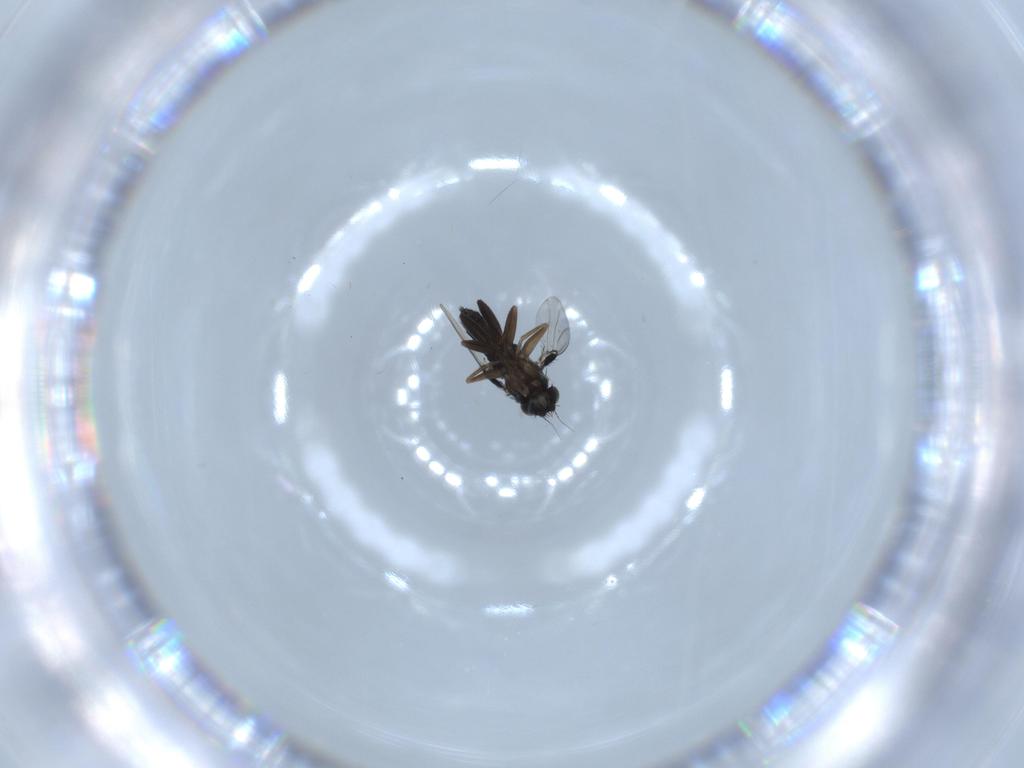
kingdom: Animalia
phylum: Arthropoda
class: Insecta
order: Diptera
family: Phoridae
